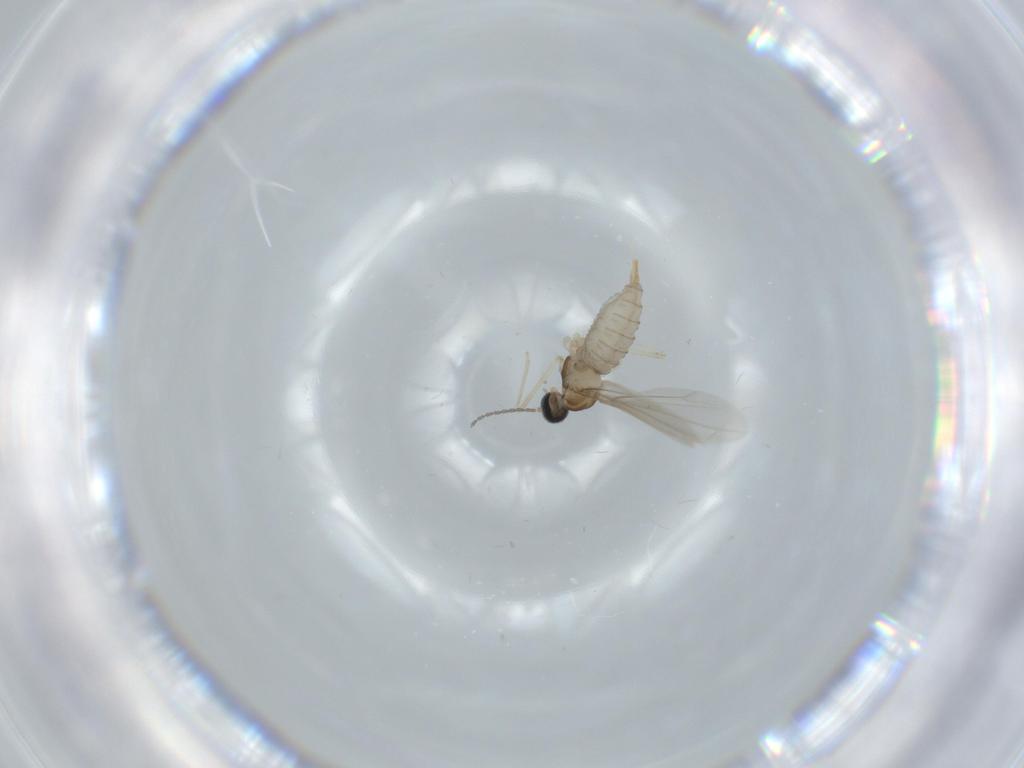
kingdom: Animalia
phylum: Arthropoda
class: Insecta
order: Diptera
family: Cecidomyiidae
